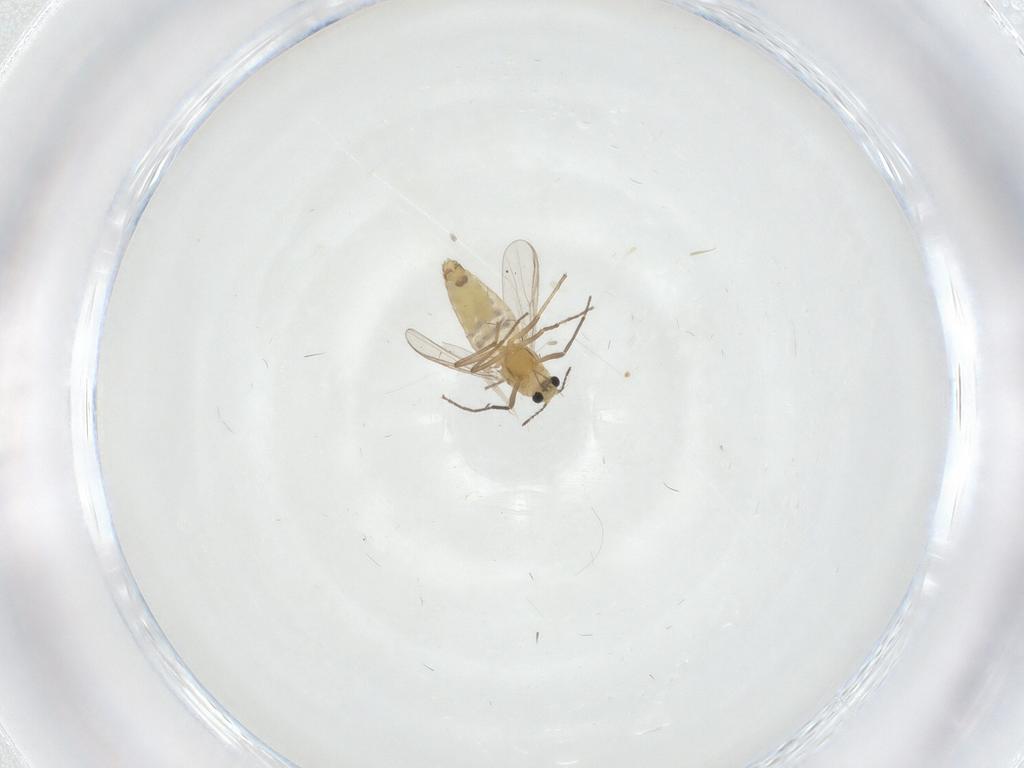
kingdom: Animalia
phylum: Arthropoda
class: Insecta
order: Diptera
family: Chironomidae
